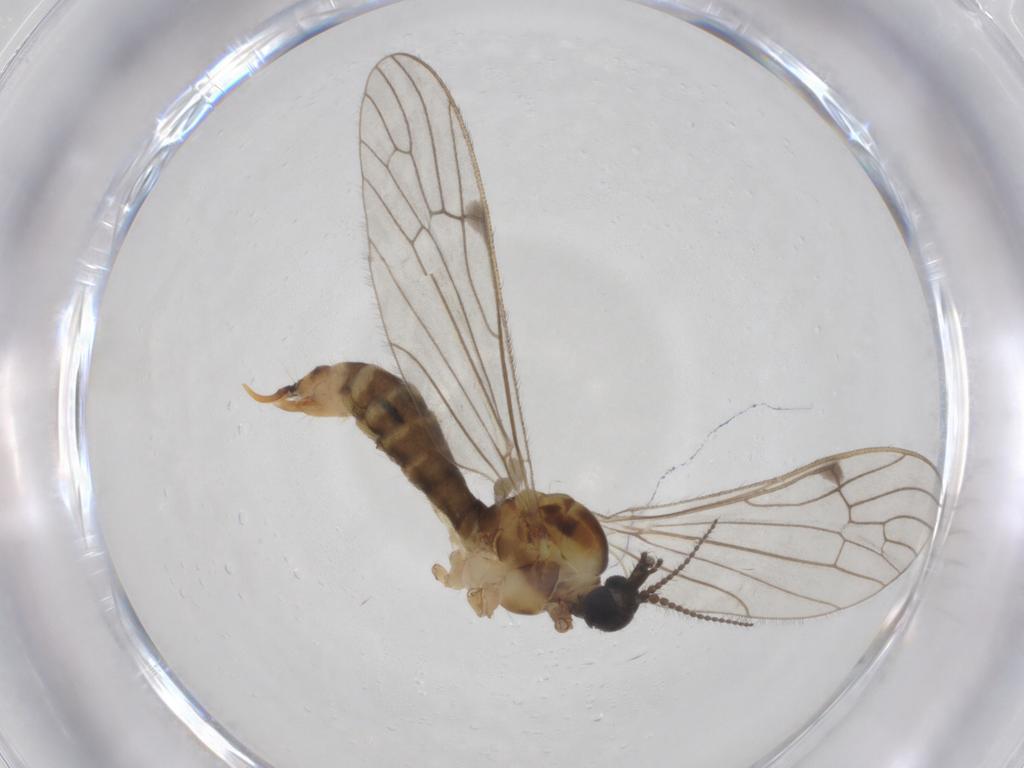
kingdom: Animalia
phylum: Arthropoda
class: Insecta
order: Diptera
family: Limoniidae
